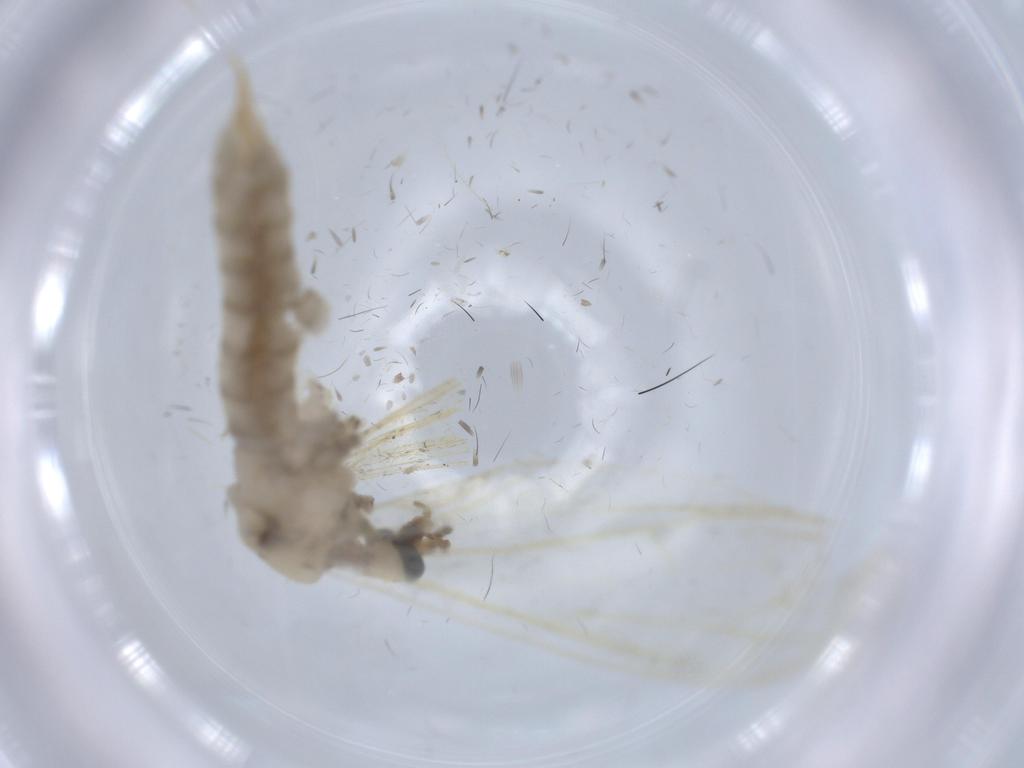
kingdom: Animalia
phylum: Arthropoda
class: Insecta
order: Diptera
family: Limoniidae
